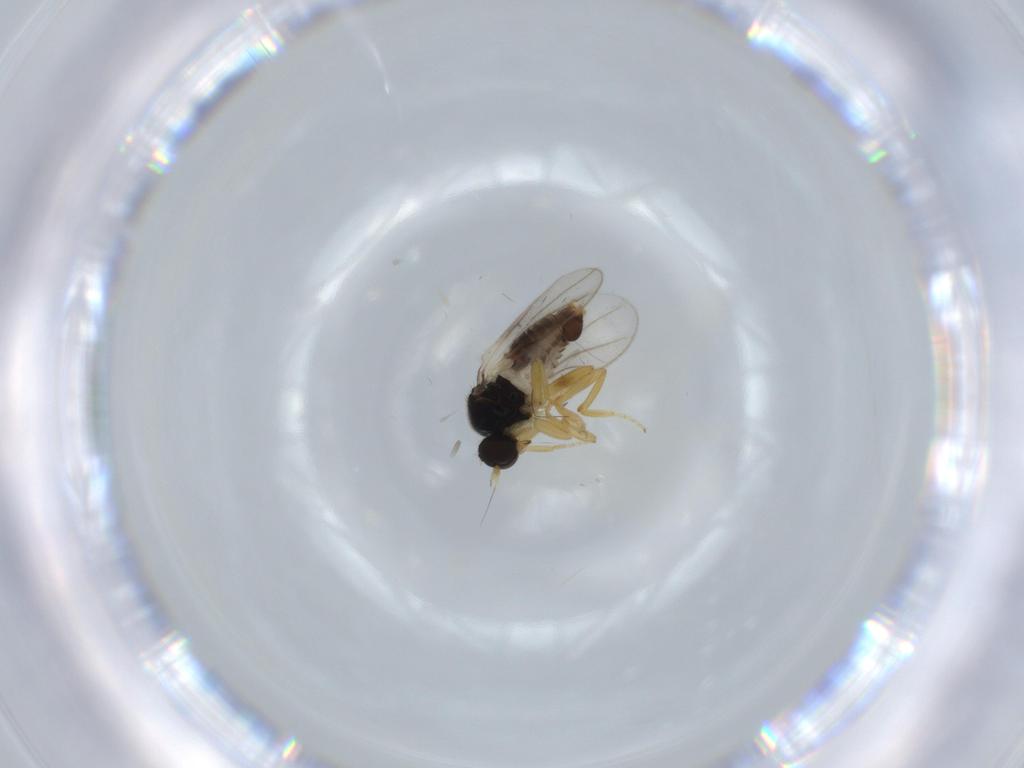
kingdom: Animalia
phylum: Arthropoda
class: Insecta
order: Diptera
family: Hybotidae
